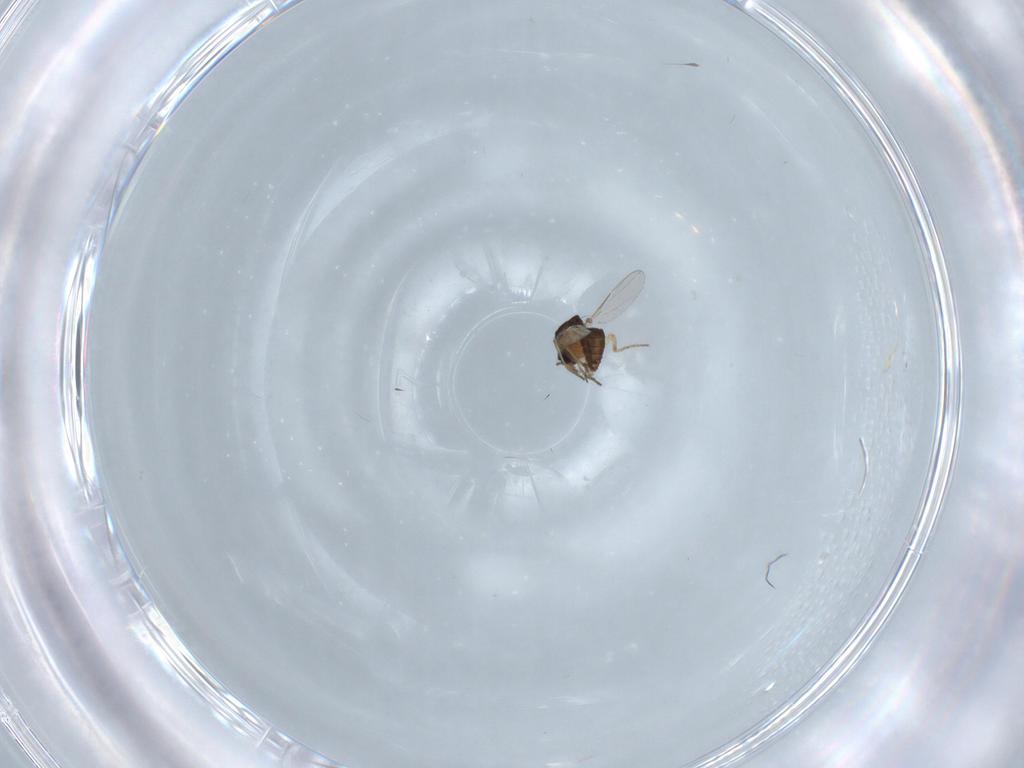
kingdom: Animalia
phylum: Arthropoda
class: Insecta
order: Diptera
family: Ceratopogonidae
